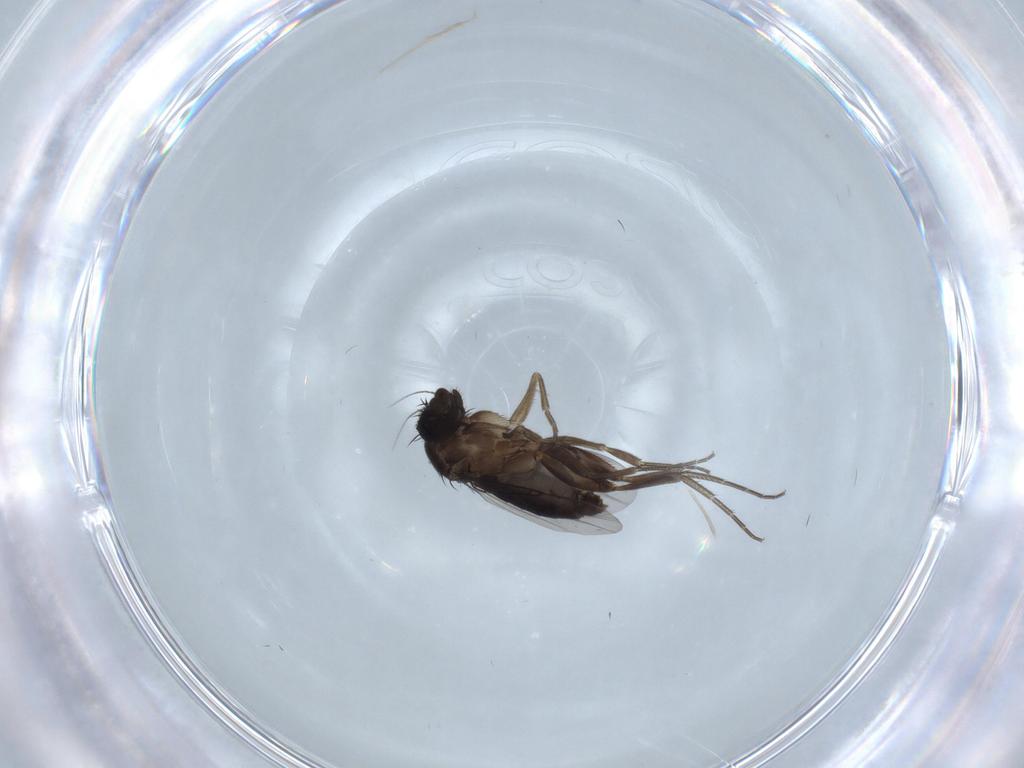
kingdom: Animalia
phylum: Arthropoda
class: Insecta
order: Diptera
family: Phoridae
